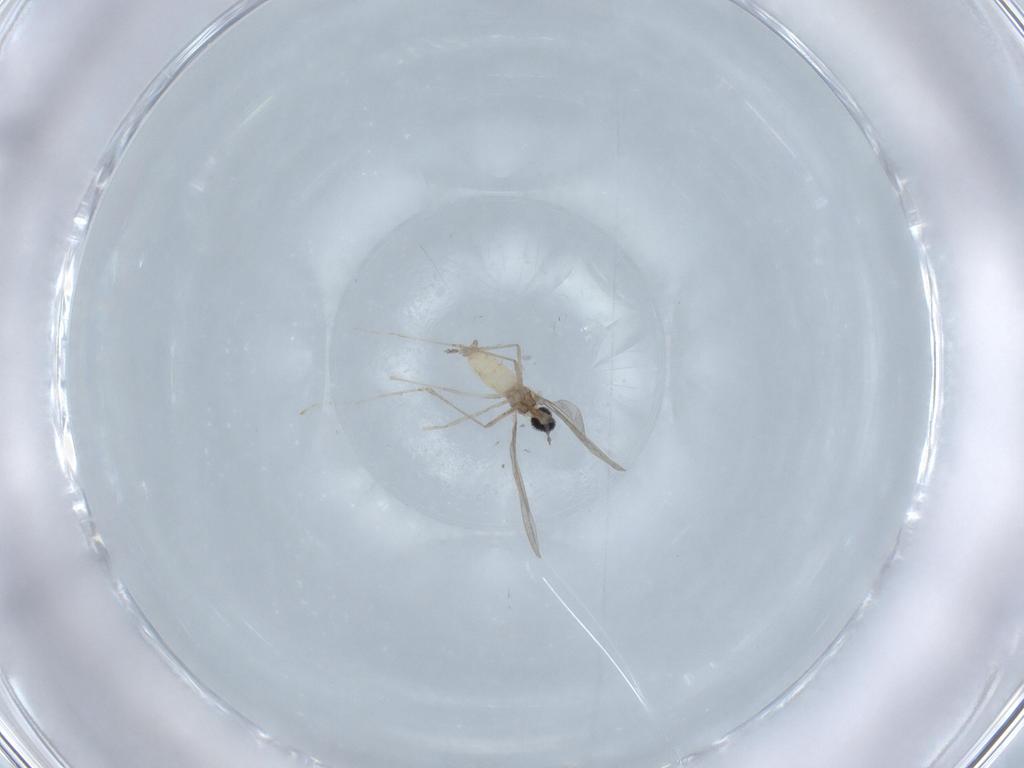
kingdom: Animalia
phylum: Arthropoda
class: Insecta
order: Diptera
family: Cecidomyiidae
